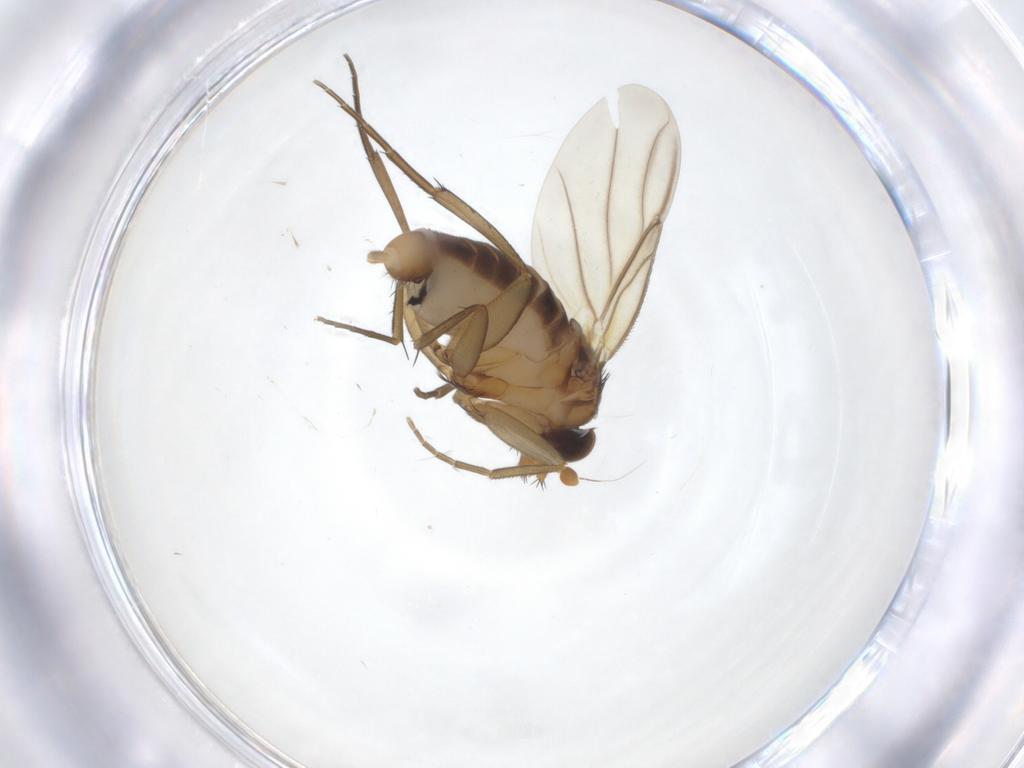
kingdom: Animalia
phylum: Arthropoda
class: Insecta
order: Diptera
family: Phoridae
